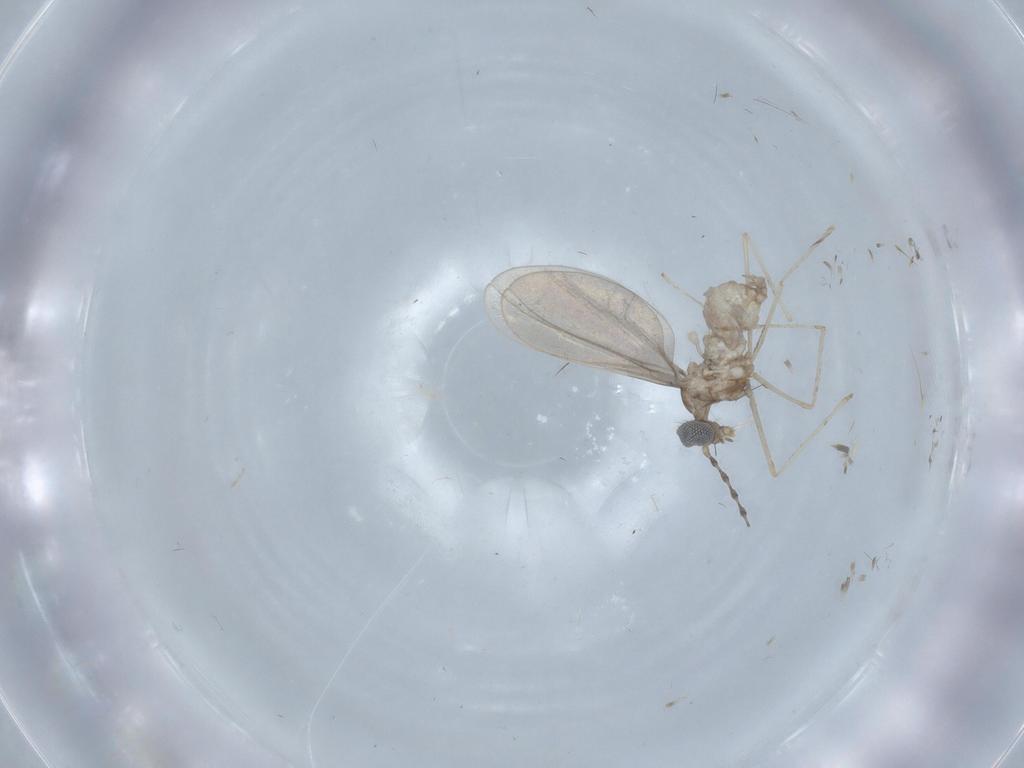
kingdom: Animalia
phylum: Arthropoda
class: Insecta
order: Diptera
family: Cecidomyiidae
